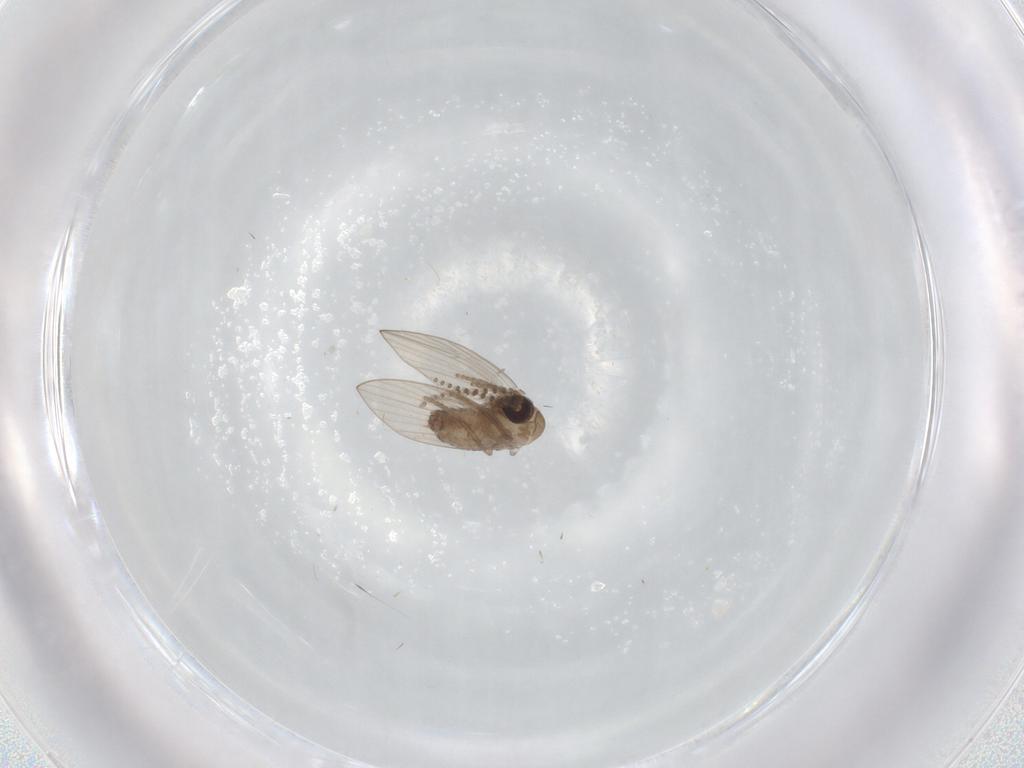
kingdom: Animalia
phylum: Arthropoda
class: Insecta
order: Diptera
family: Psychodidae
